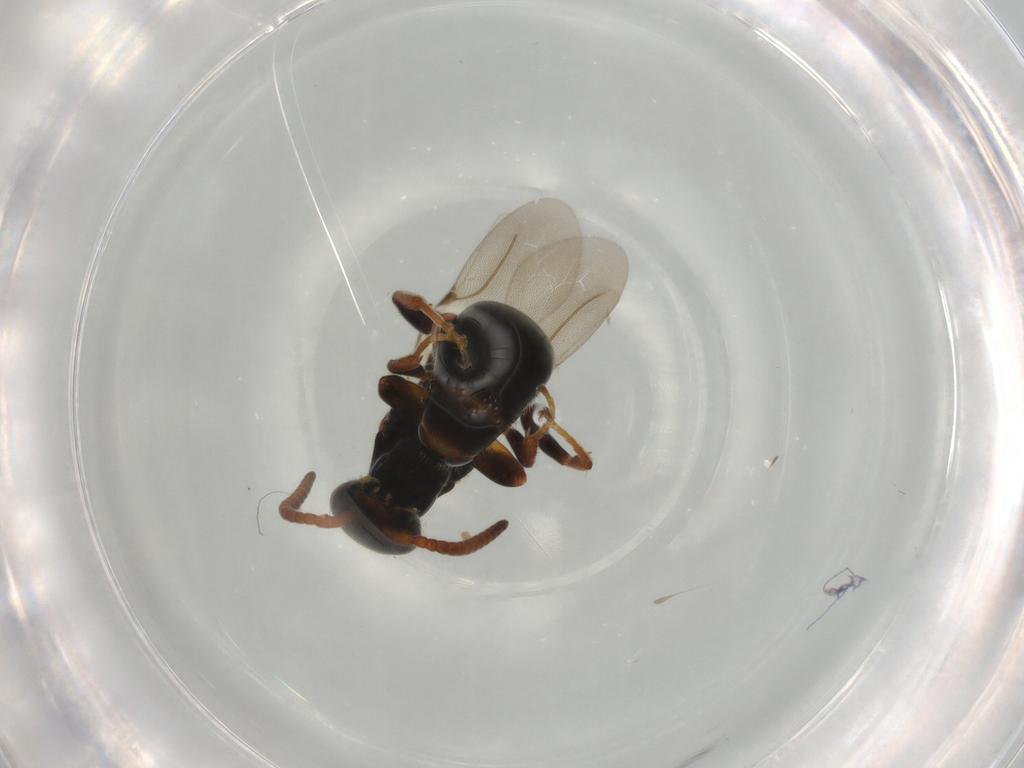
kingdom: Animalia
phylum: Arthropoda
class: Insecta
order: Hymenoptera
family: Bethylidae
